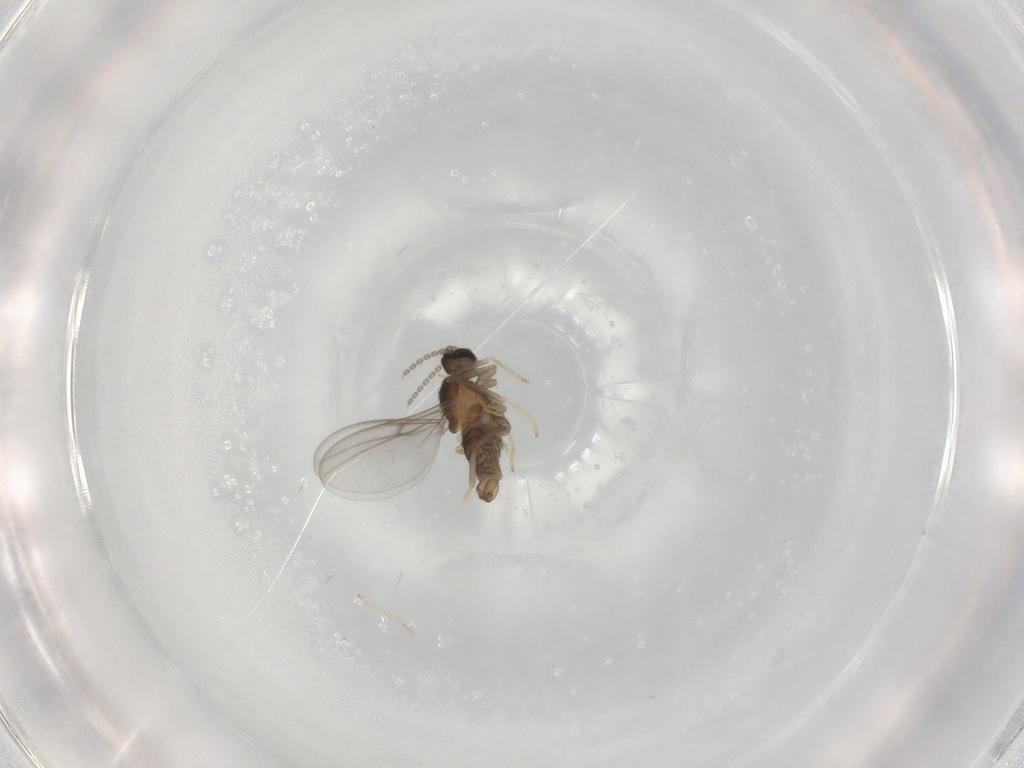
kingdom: Animalia
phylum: Arthropoda
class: Insecta
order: Diptera
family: Cecidomyiidae
